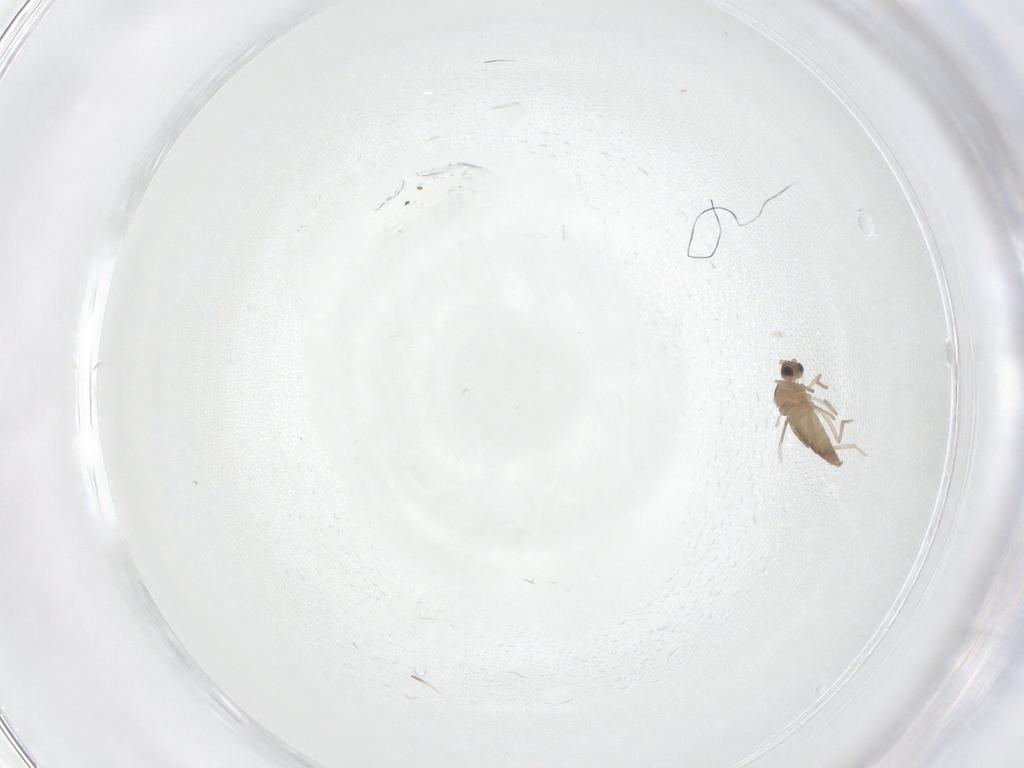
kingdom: Animalia
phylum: Arthropoda
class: Insecta
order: Diptera
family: Cecidomyiidae
